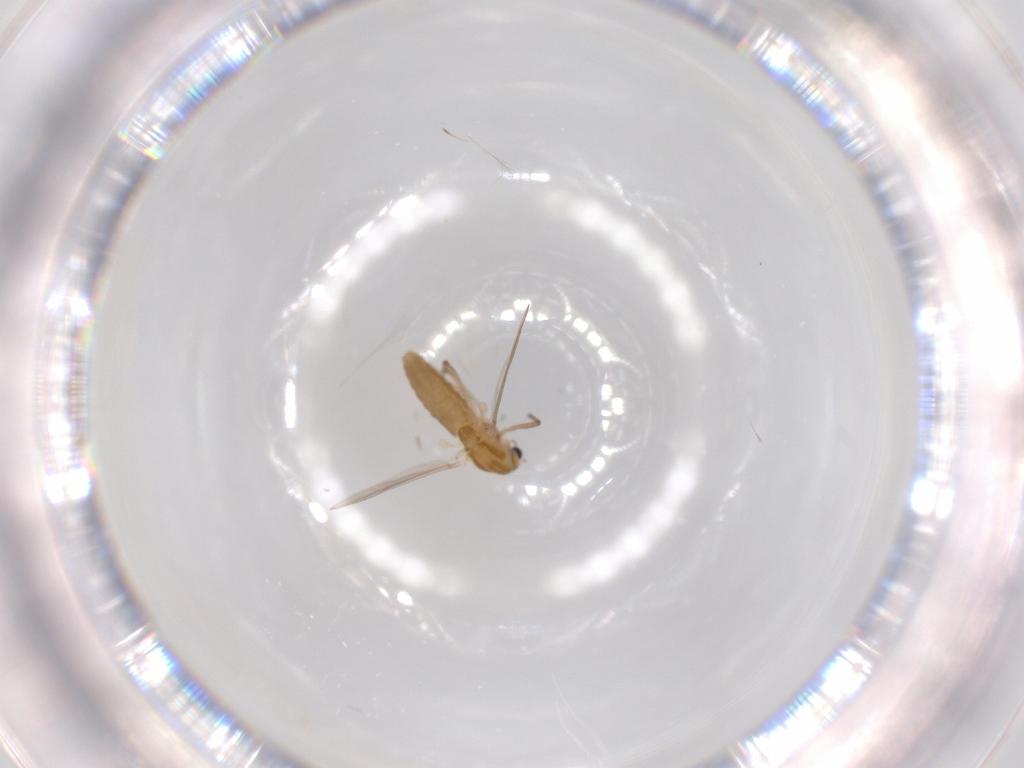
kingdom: Animalia
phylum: Arthropoda
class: Insecta
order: Diptera
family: Chironomidae
